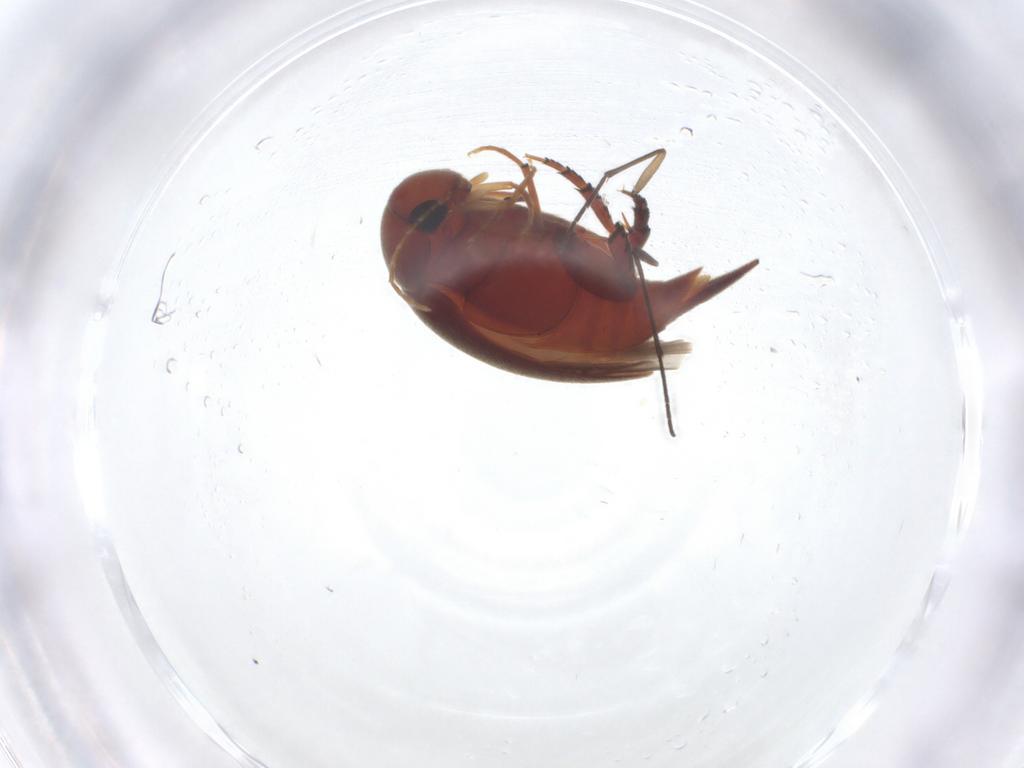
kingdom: Animalia
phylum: Arthropoda
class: Insecta
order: Coleoptera
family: Mordellidae
